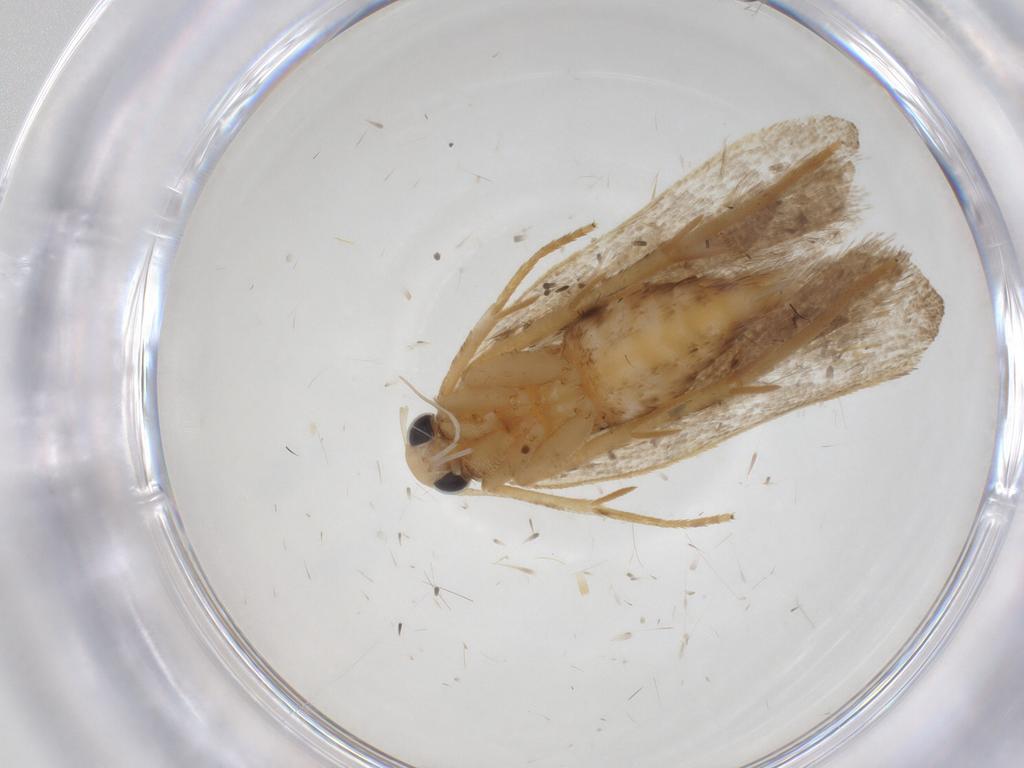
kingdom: Animalia
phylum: Arthropoda
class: Insecta
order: Lepidoptera
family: Gelechiidae
